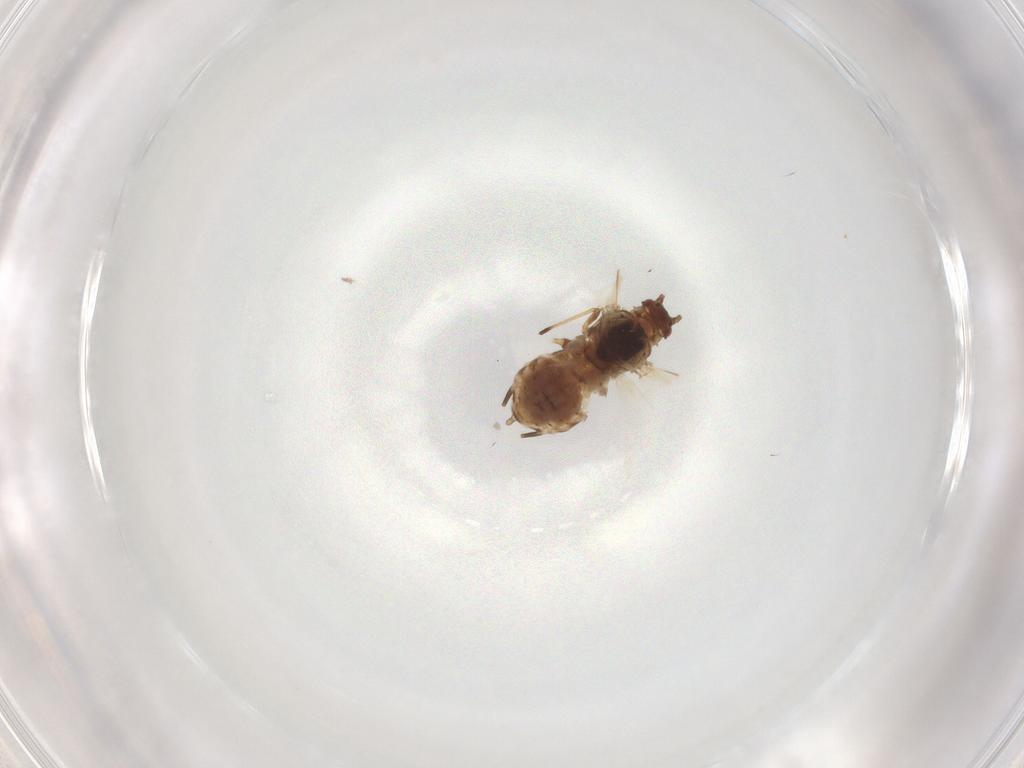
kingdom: Animalia
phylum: Arthropoda
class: Insecta
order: Hemiptera
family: Aphididae
